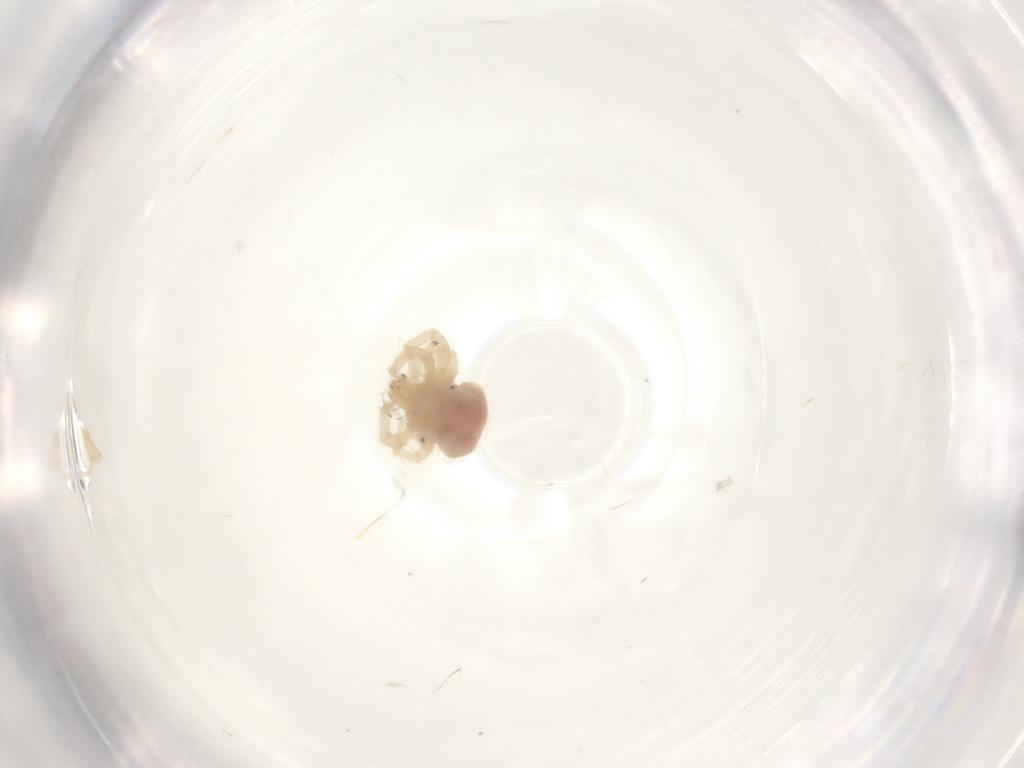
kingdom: Animalia
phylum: Arthropoda
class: Arachnida
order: Trombidiformes
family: Anystidae
